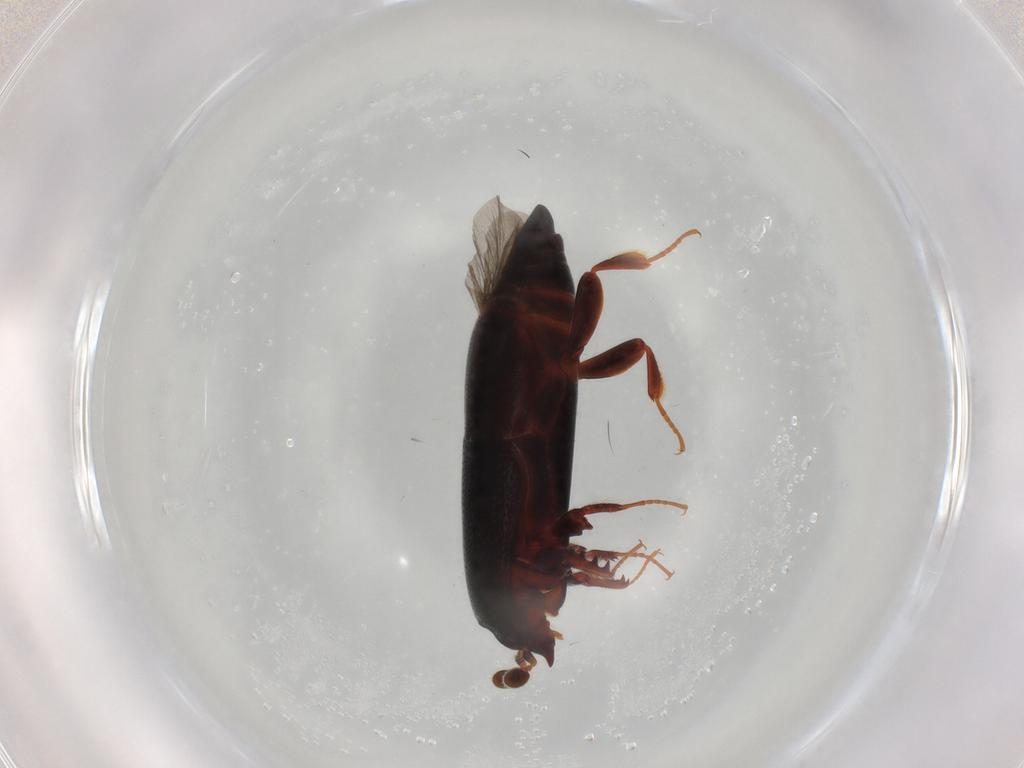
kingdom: Animalia
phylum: Arthropoda
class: Insecta
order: Coleoptera
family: Histeridae
